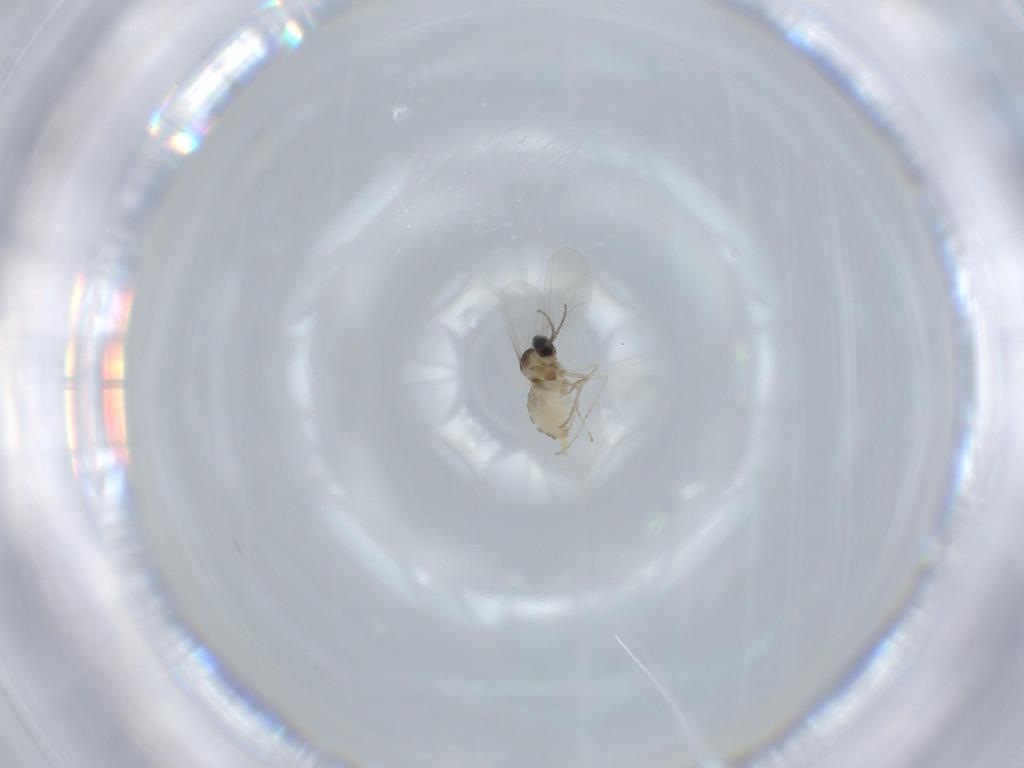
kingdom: Animalia
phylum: Arthropoda
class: Insecta
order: Diptera
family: Cecidomyiidae
